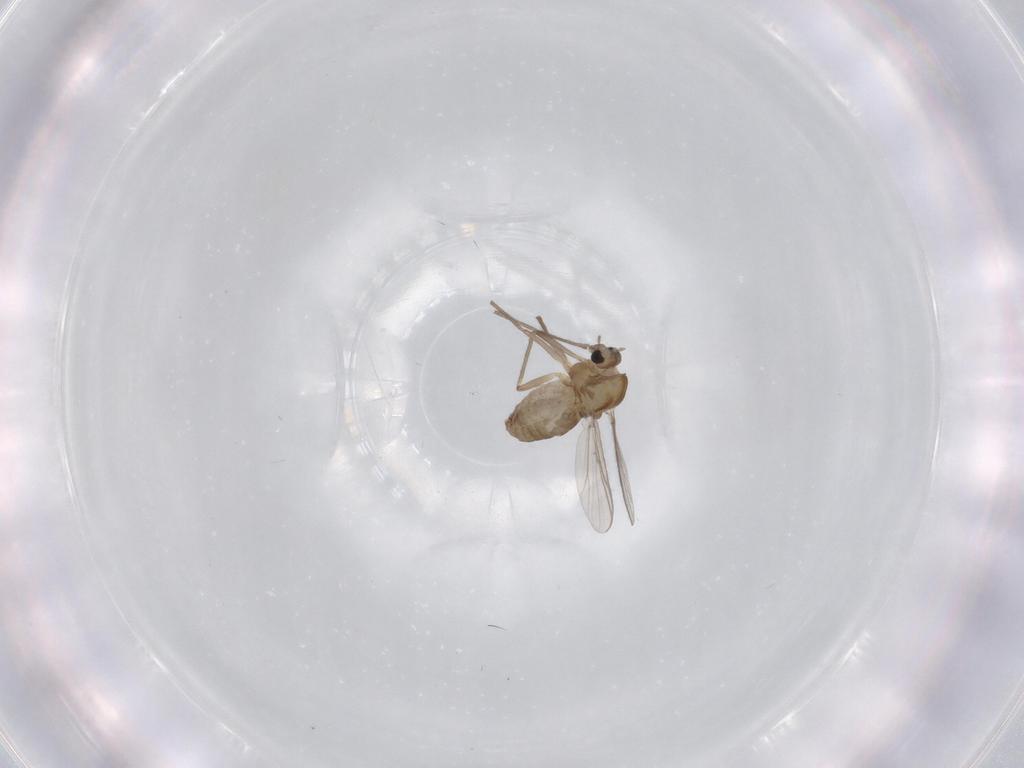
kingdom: Animalia
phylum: Arthropoda
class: Insecta
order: Diptera
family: Chironomidae
